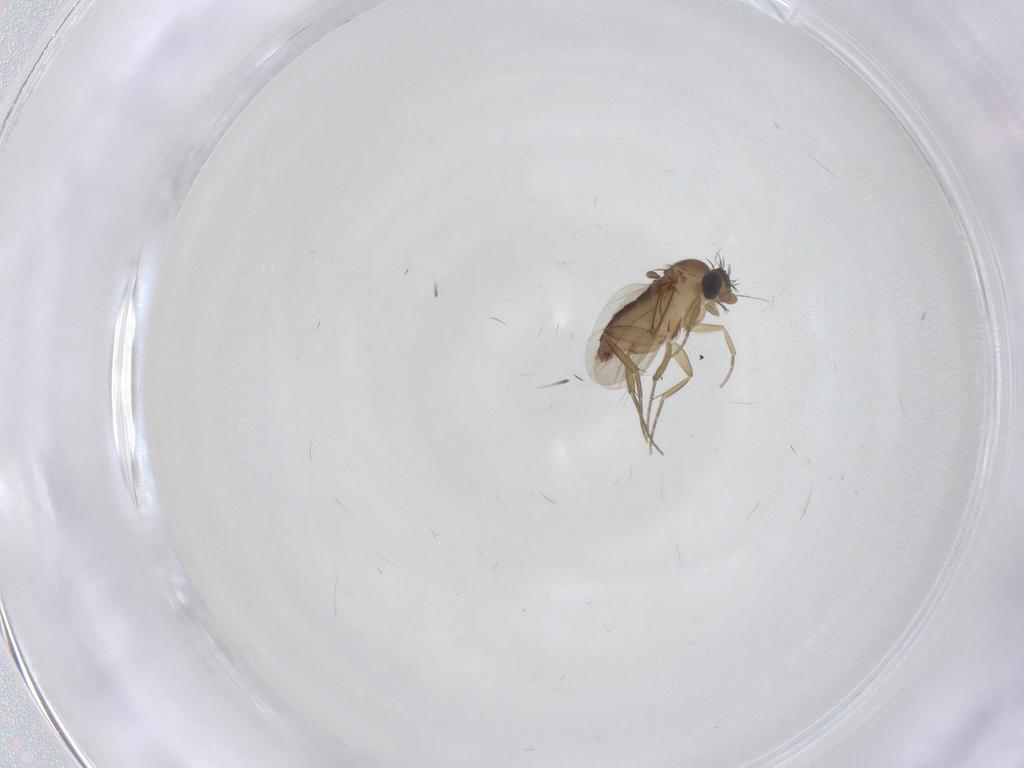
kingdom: Animalia
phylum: Arthropoda
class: Insecta
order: Diptera
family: Phoridae
